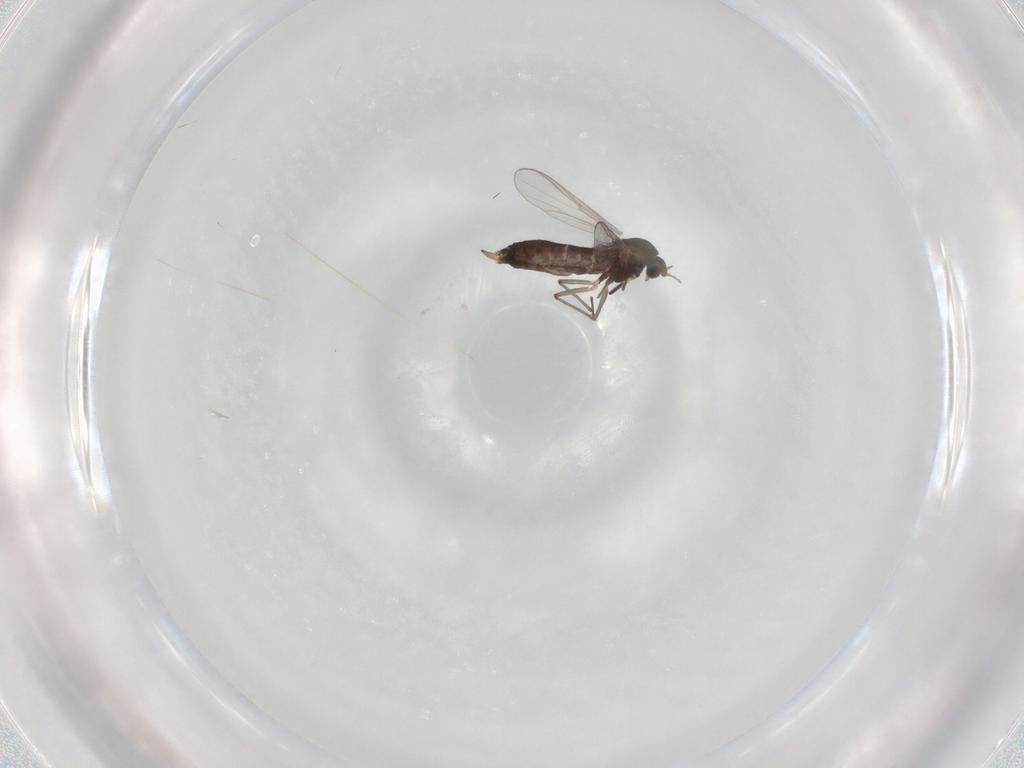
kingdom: Animalia
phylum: Arthropoda
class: Insecta
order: Diptera
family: Chironomidae
